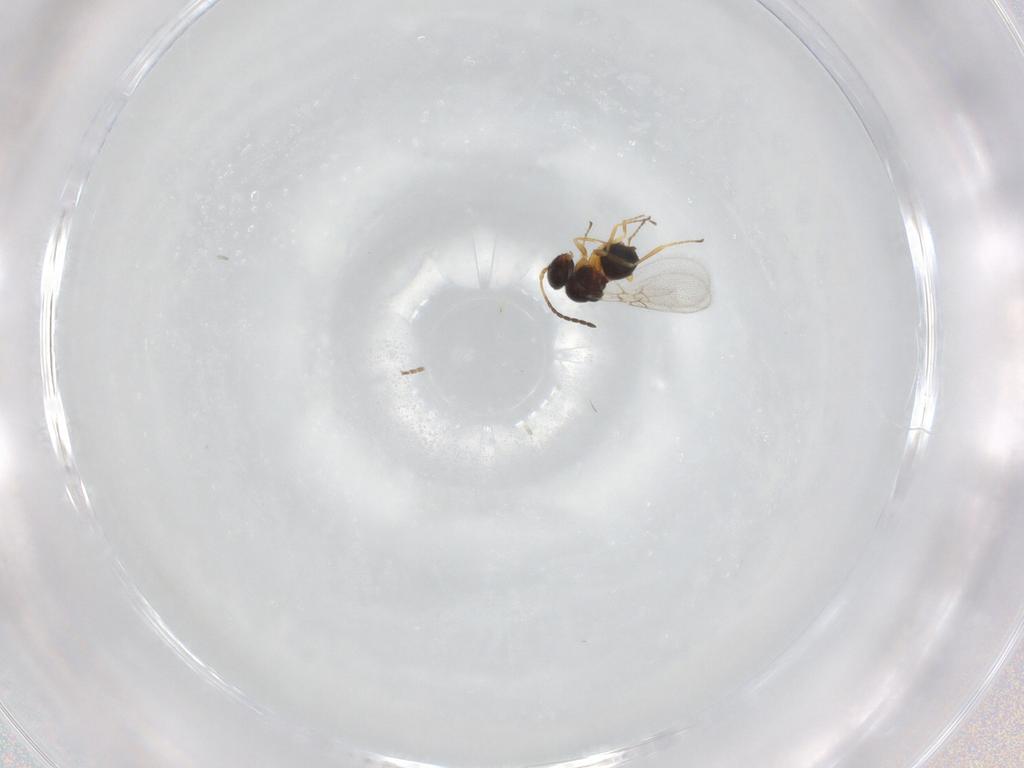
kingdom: Animalia
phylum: Arthropoda
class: Insecta
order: Hymenoptera
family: Figitidae
